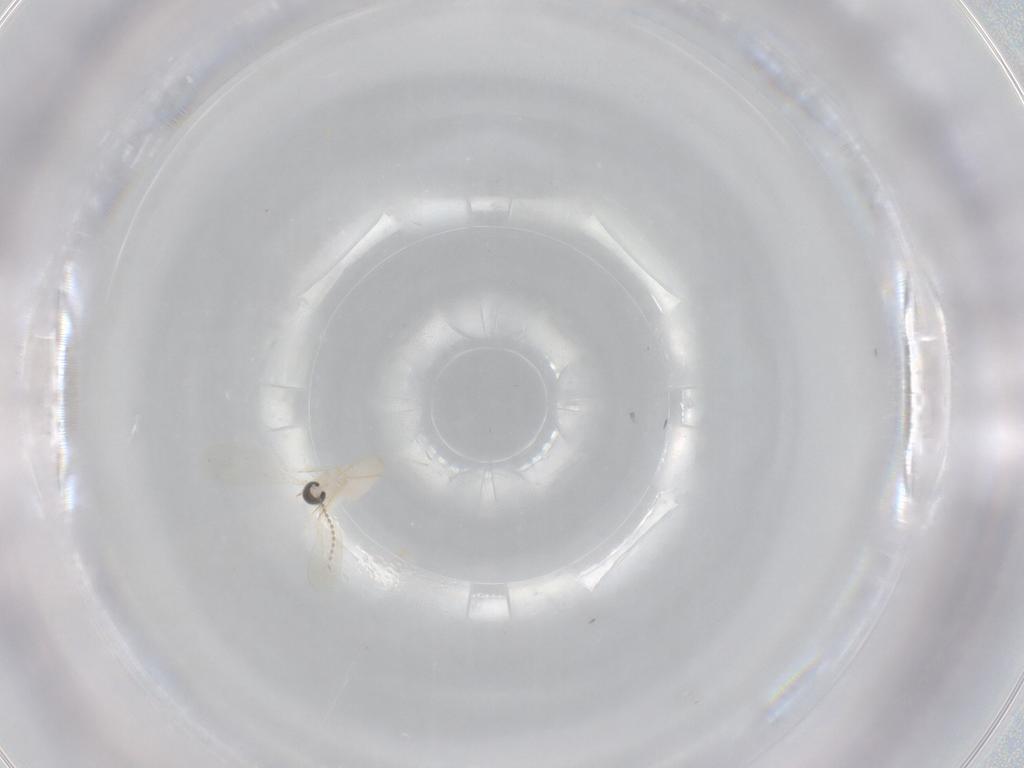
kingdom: Animalia
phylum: Arthropoda
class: Insecta
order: Diptera
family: Cecidomyiidae
